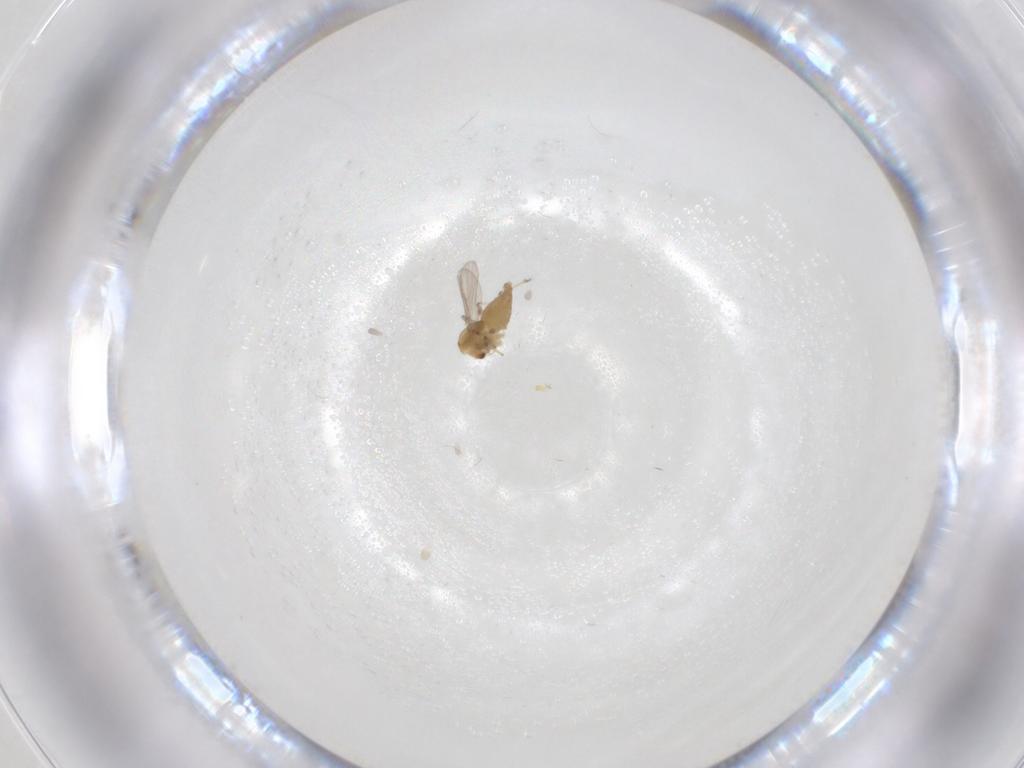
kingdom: Animalia
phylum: Arthropoda
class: Insecta
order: Diptera
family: Chironomidae
